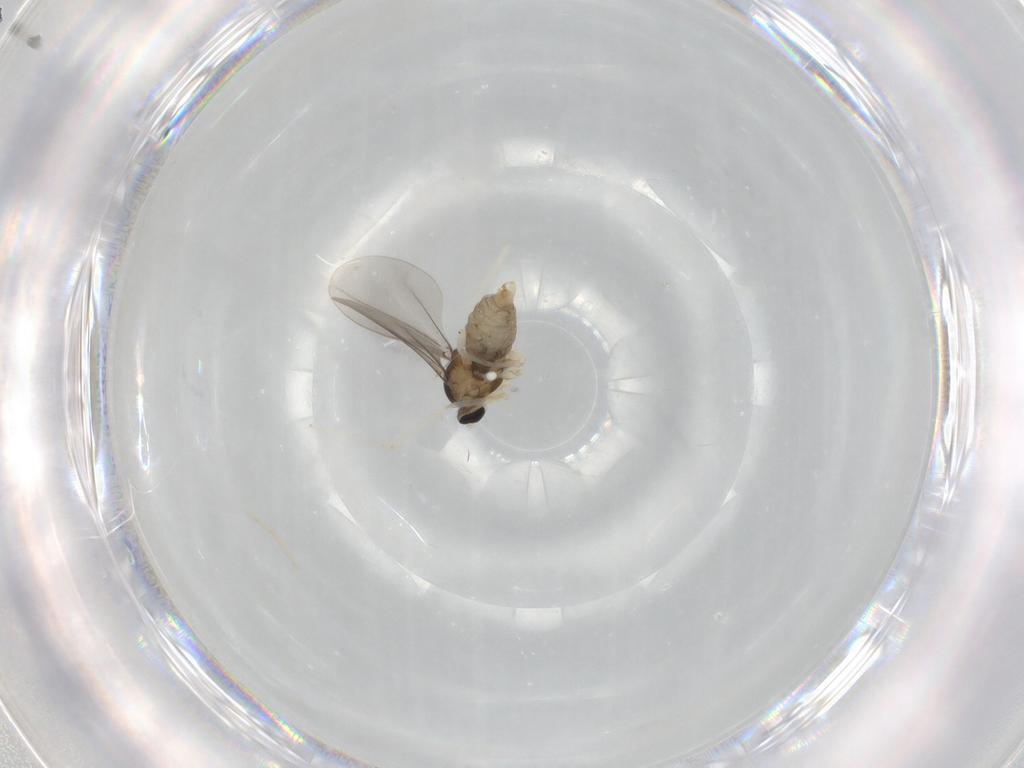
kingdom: Animalia
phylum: Arthropoda
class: Insecta
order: Diptera
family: Cecidomyiidae
